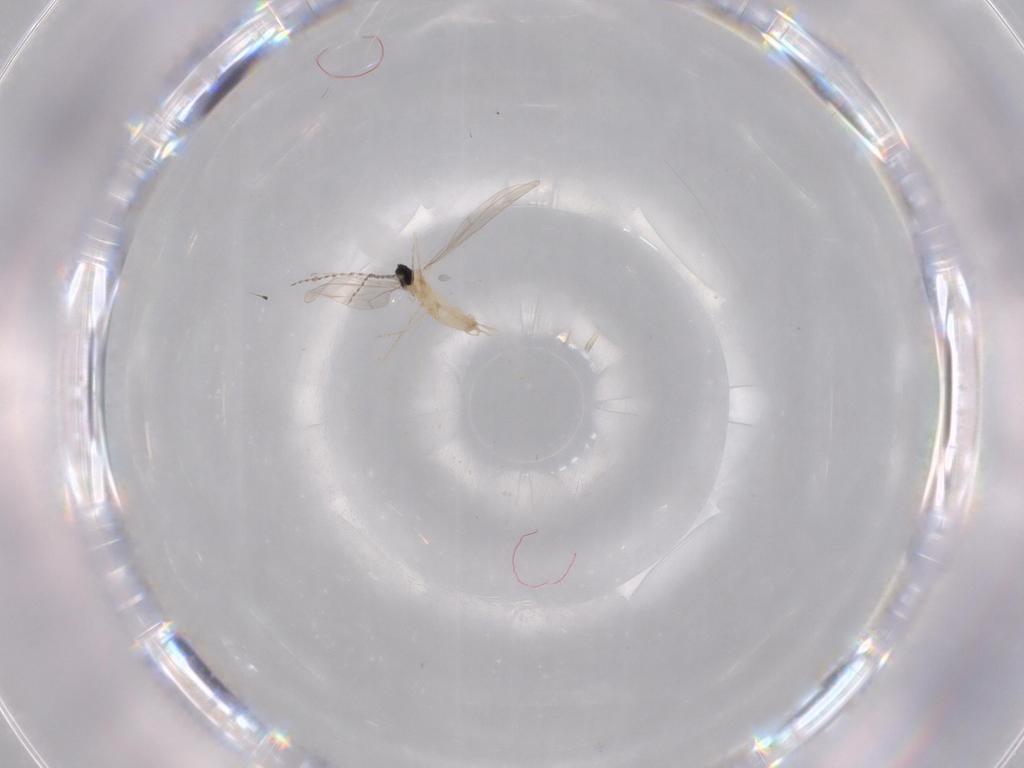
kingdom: Animalia
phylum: Arthropoda
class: Insecta
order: Diptera
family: Cecidomyiidae
